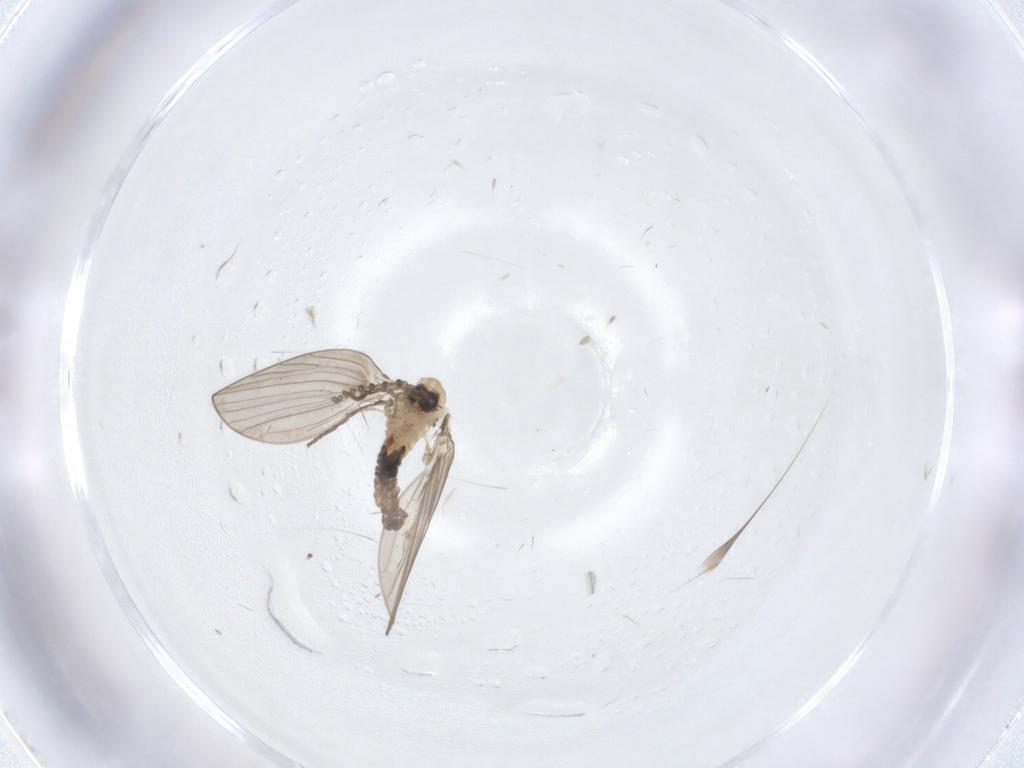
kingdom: Animalia
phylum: Arthropoda
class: Insecta
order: Diptera
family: Psychodidae
